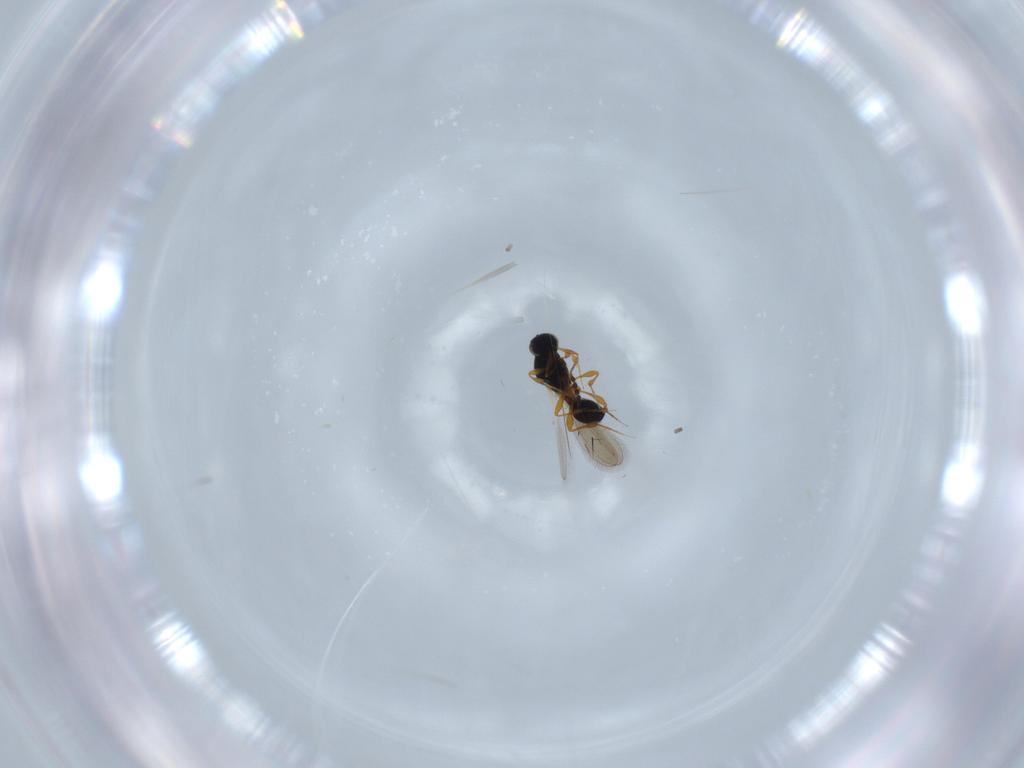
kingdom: Animalia
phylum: Arthropoda
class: Insecta
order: Hymenoptera
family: Platygastridae
